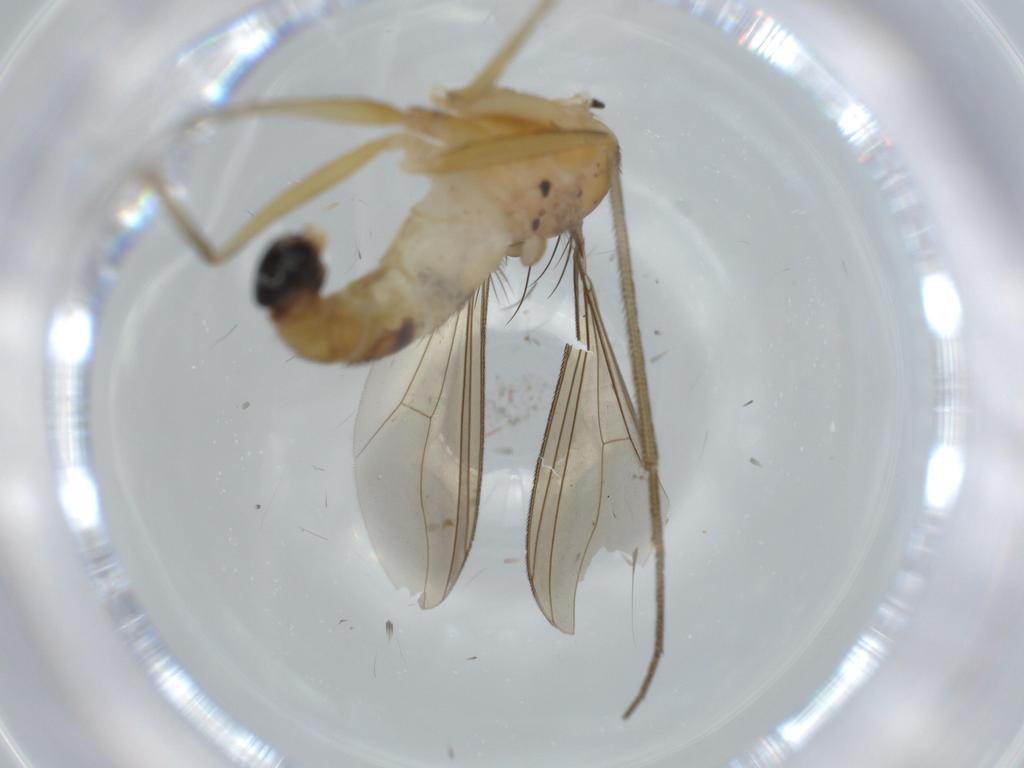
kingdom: Animalia
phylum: Arthropoda
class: Insecta
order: Diptera
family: Dolichopodidae
